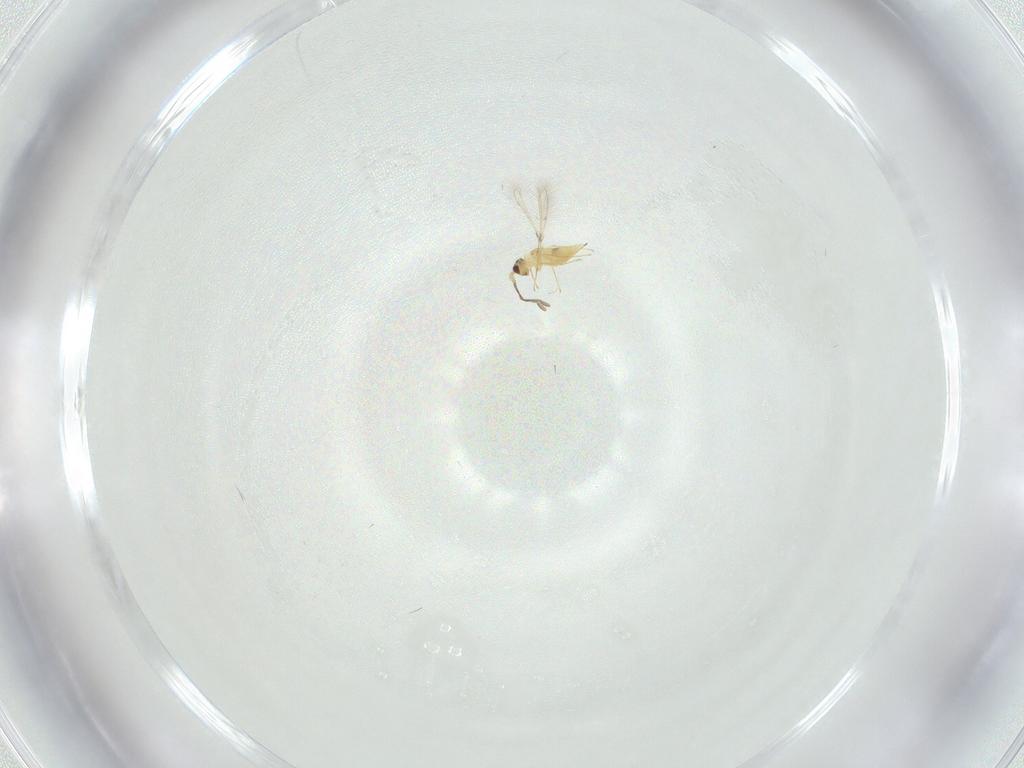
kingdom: Animalia
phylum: Arthropoda
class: Insecta
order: Hymenoptera
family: Mymaridae
